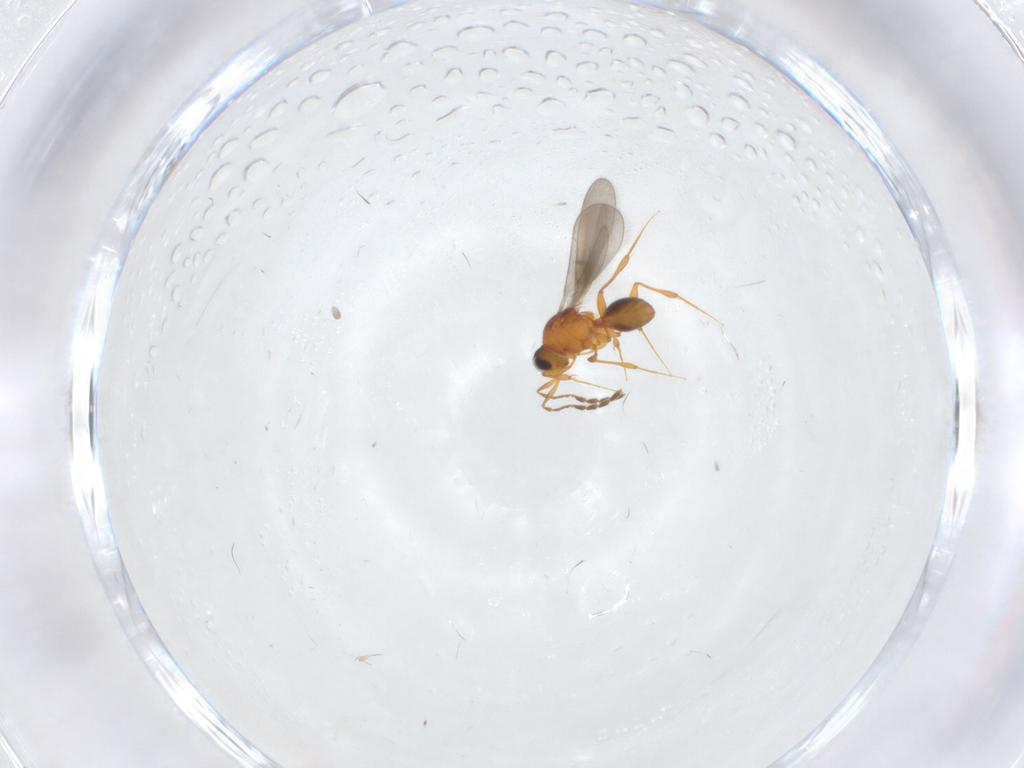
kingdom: Animalia
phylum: Arthropoda
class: Insecta
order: Hymenoptera
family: Platygastridae
